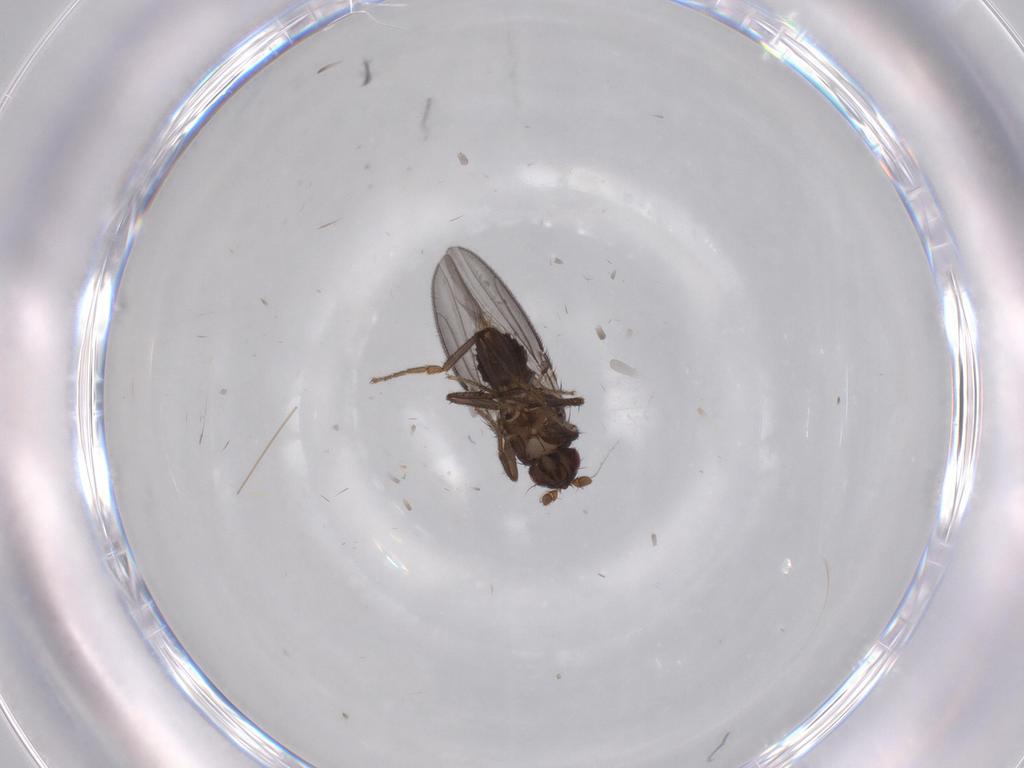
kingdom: Animalia
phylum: Arthropoda
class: Insecta
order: Diptera
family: Sphaeroceridae
